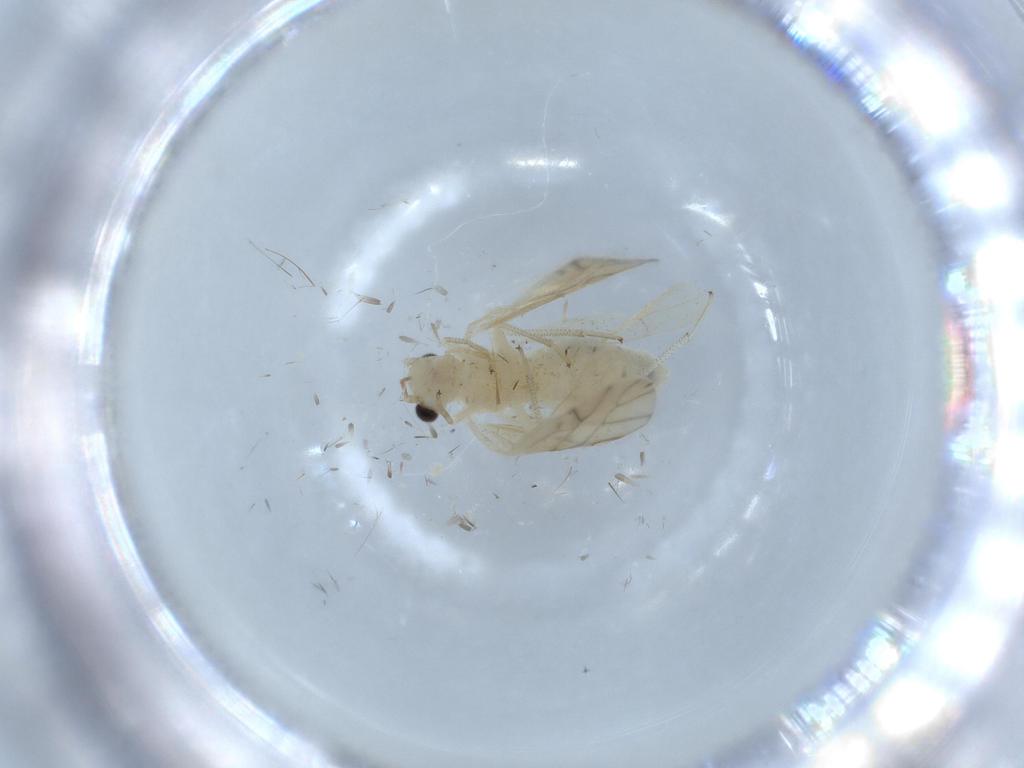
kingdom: Animalia
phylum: Arthropoda
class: Insecta
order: Psocodea
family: Caeciliusidae
